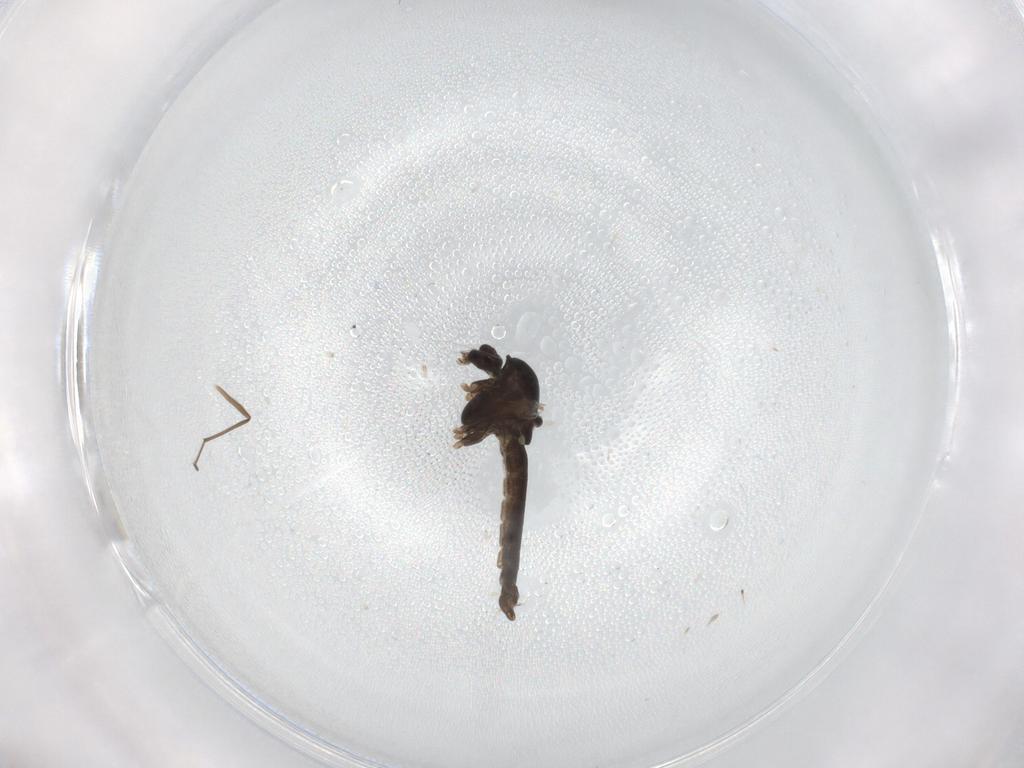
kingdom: Animalia
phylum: Arthropoda
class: Insecta
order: Diptera
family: Chironomidae
